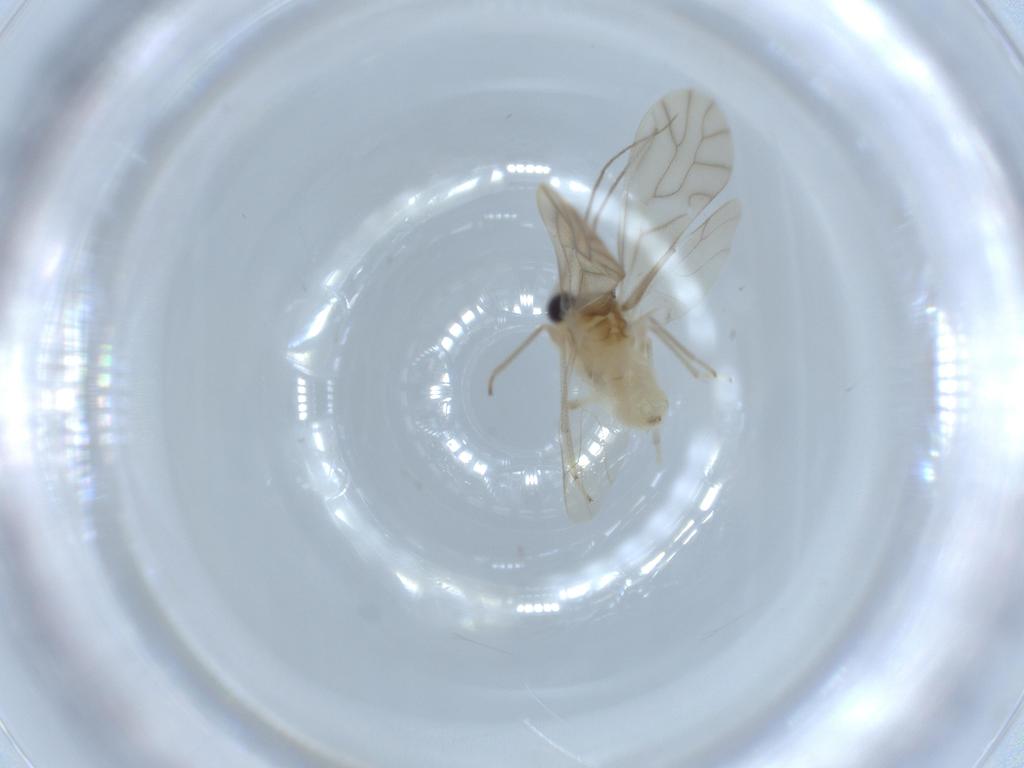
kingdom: Animalia
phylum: Arthropoda
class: Insecta
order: Psocodea
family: Caeciliusidae
